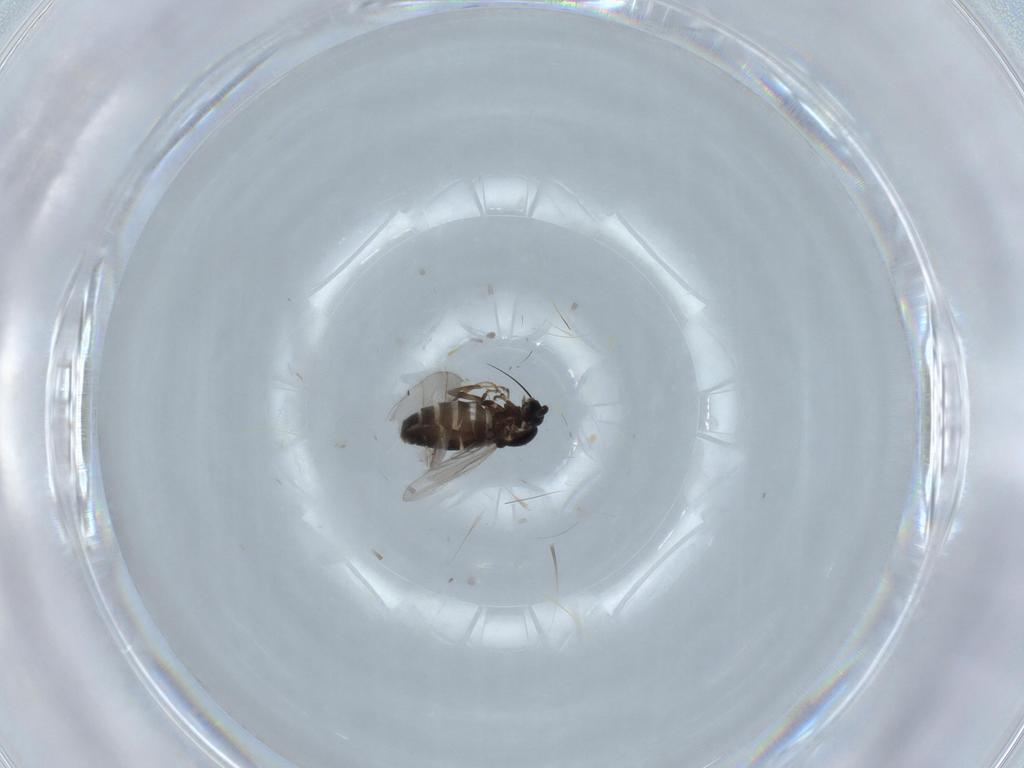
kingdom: Animalia
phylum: Arthropoda
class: Insecta
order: Diptera
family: Scatopsidae
